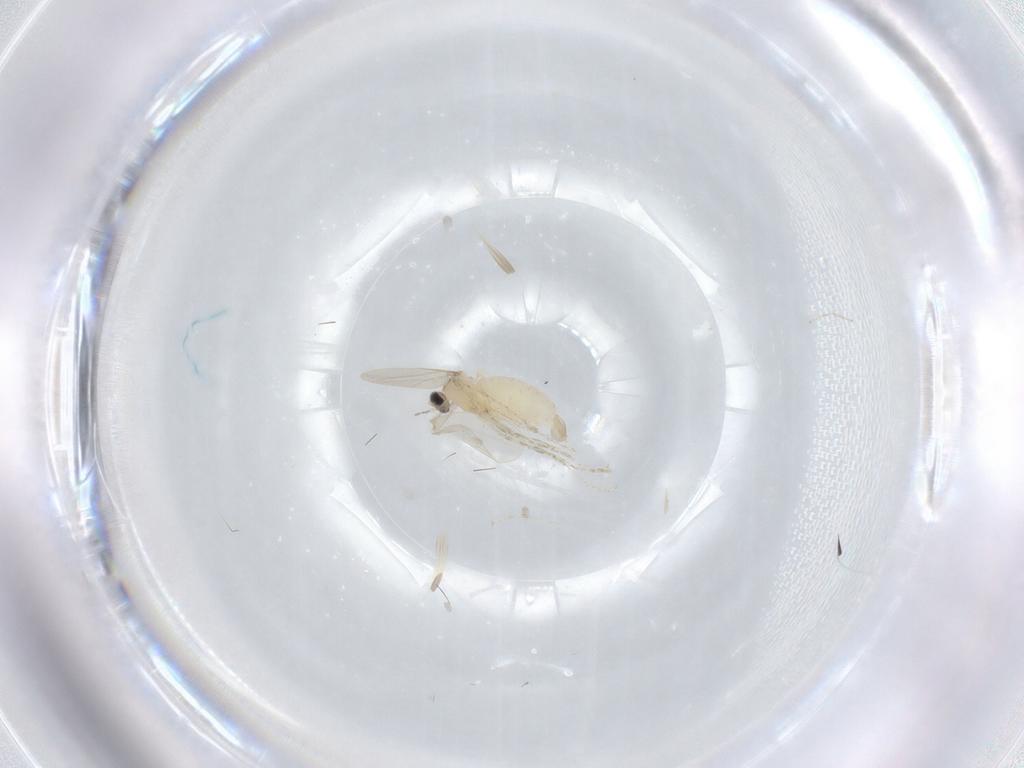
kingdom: Animalia
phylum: Arthropoda
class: Insecta
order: Diptera
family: Cecidomyiidae
